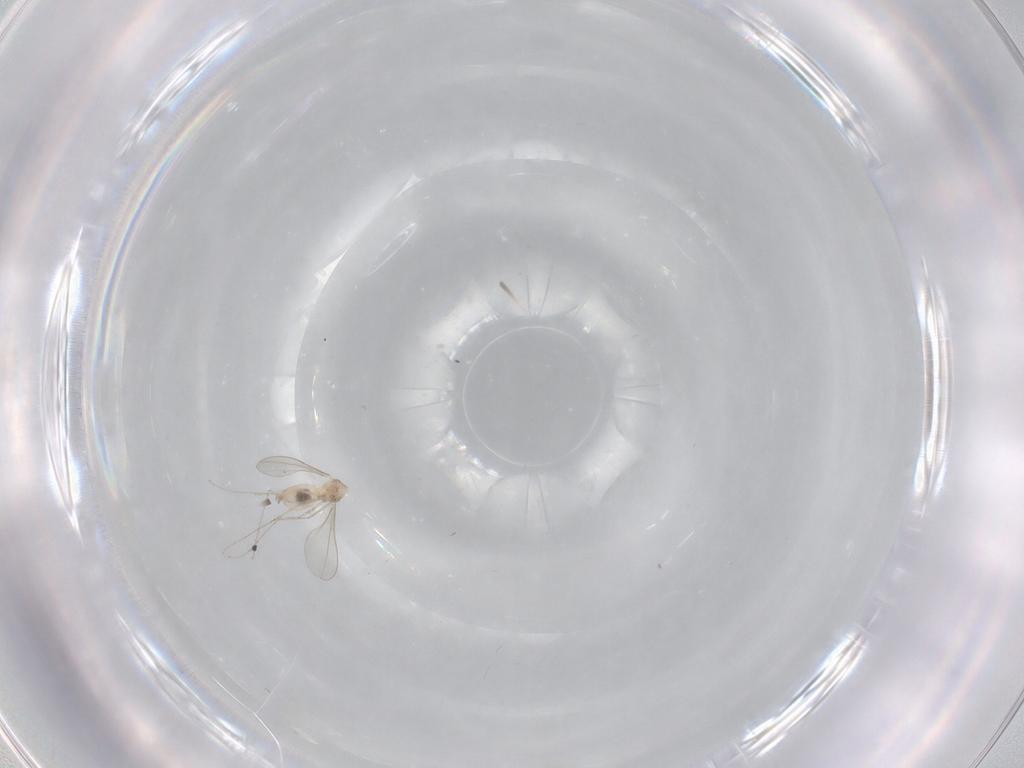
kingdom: Animalia
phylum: Arthropoda
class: Insecta
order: Diptera
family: Cecidomyiidae
